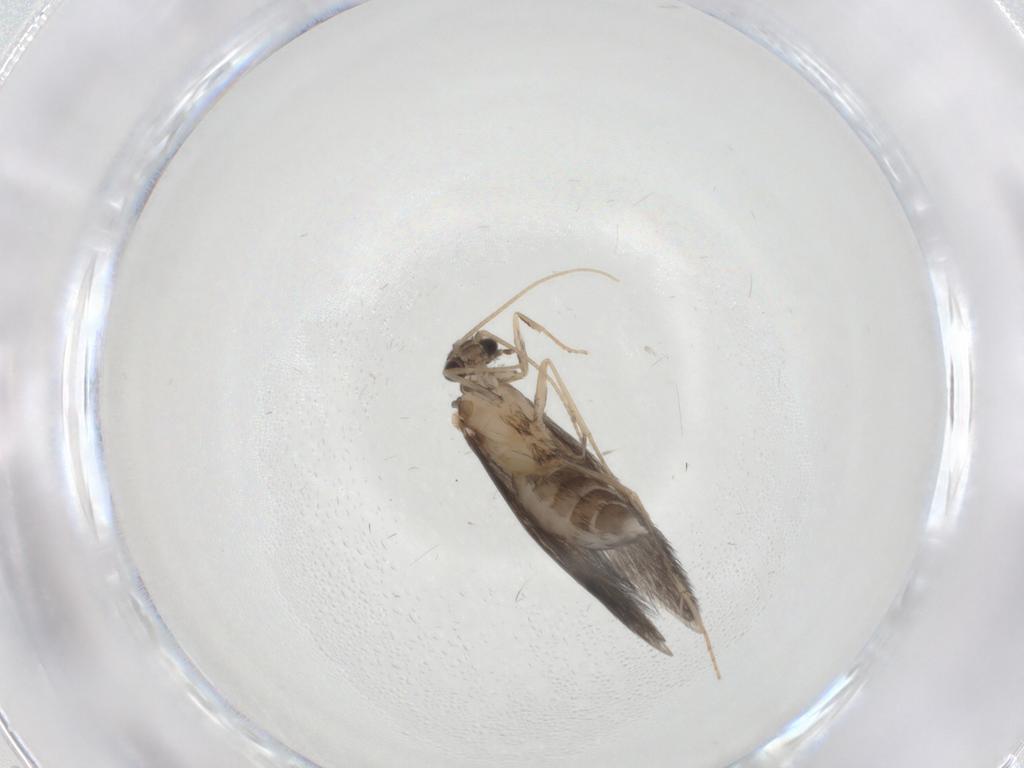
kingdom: Animalia
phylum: Arthropoda
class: Insecta
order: Trichoptera
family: Hydroptilidae
